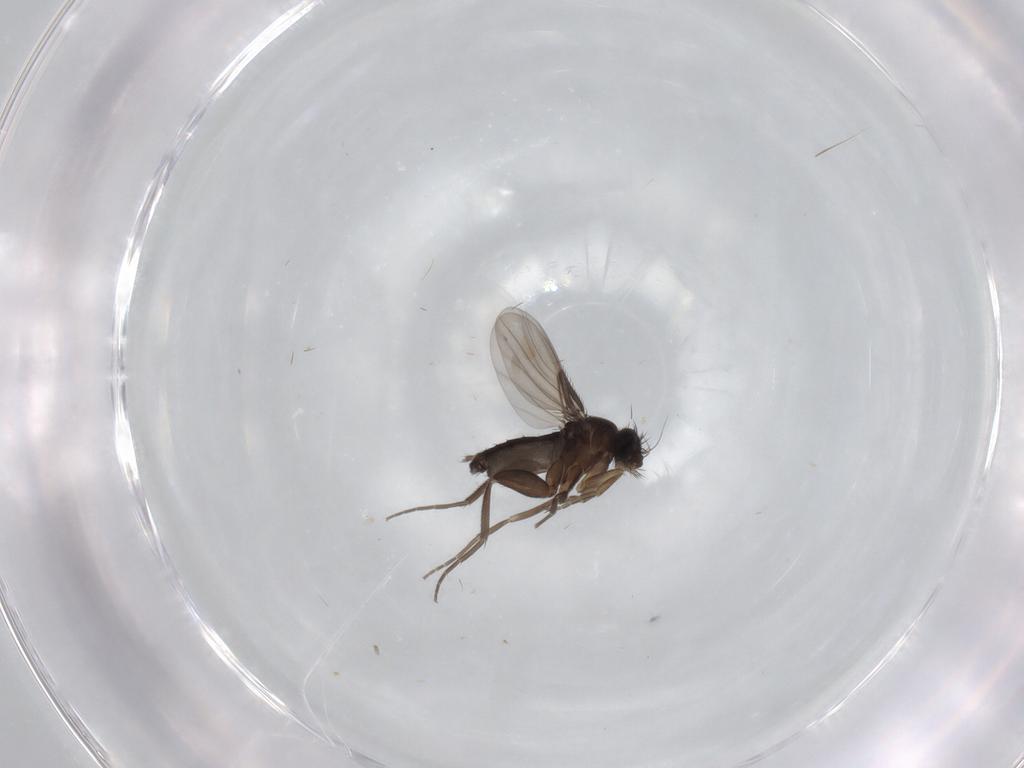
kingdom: Animalia
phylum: Arthropoda
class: Insecta
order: Diptera
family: Phoridae
